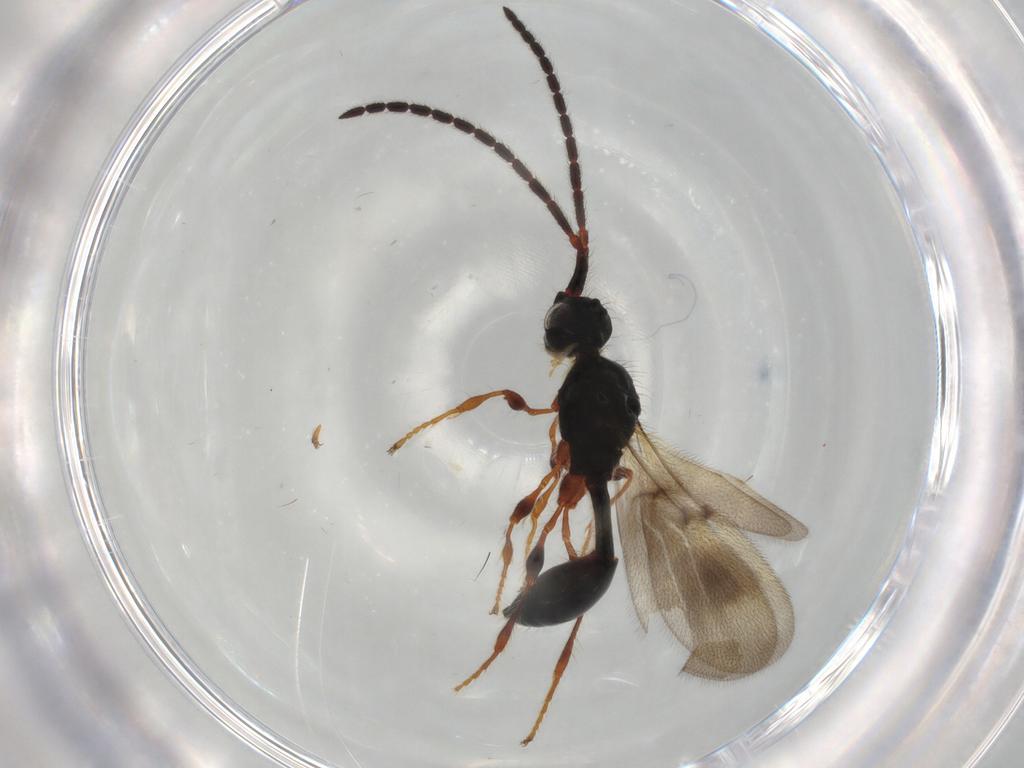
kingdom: Animalia
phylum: Arthropoda
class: Insecta
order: Hymenoptera
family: Diapriidae
